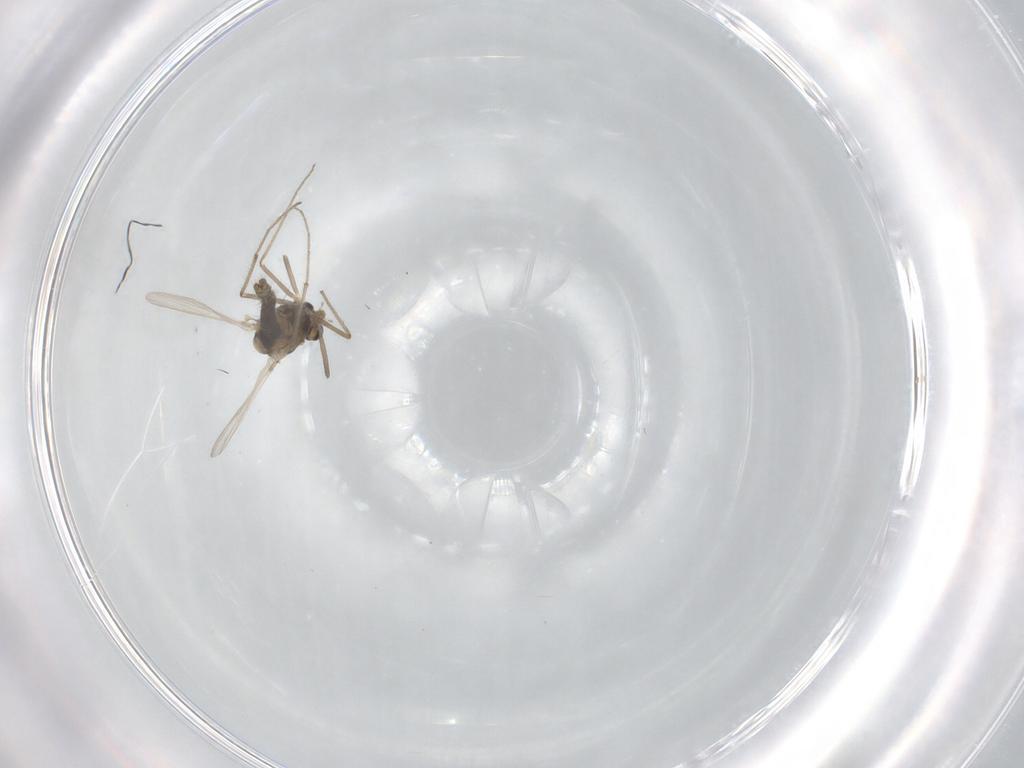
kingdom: Animalia
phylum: Arthropoda
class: Insecta
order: Diptera
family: Chironomidae
